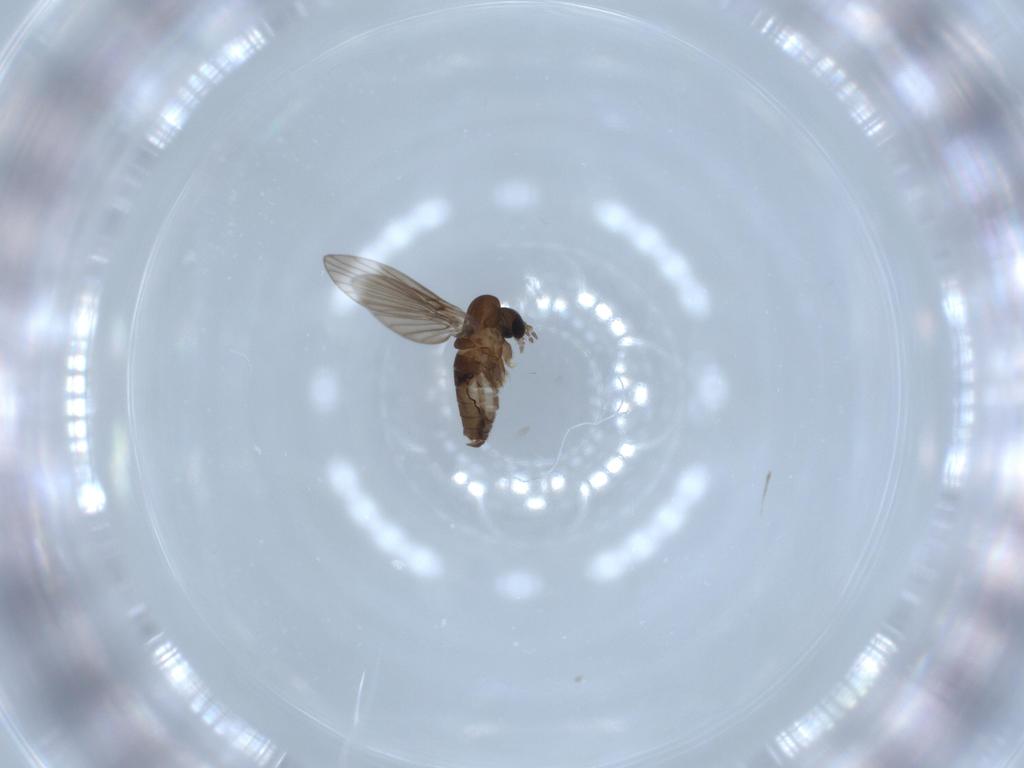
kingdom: Animalia
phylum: Arthropoda
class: Insecta
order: Diptera
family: Psychodidae
